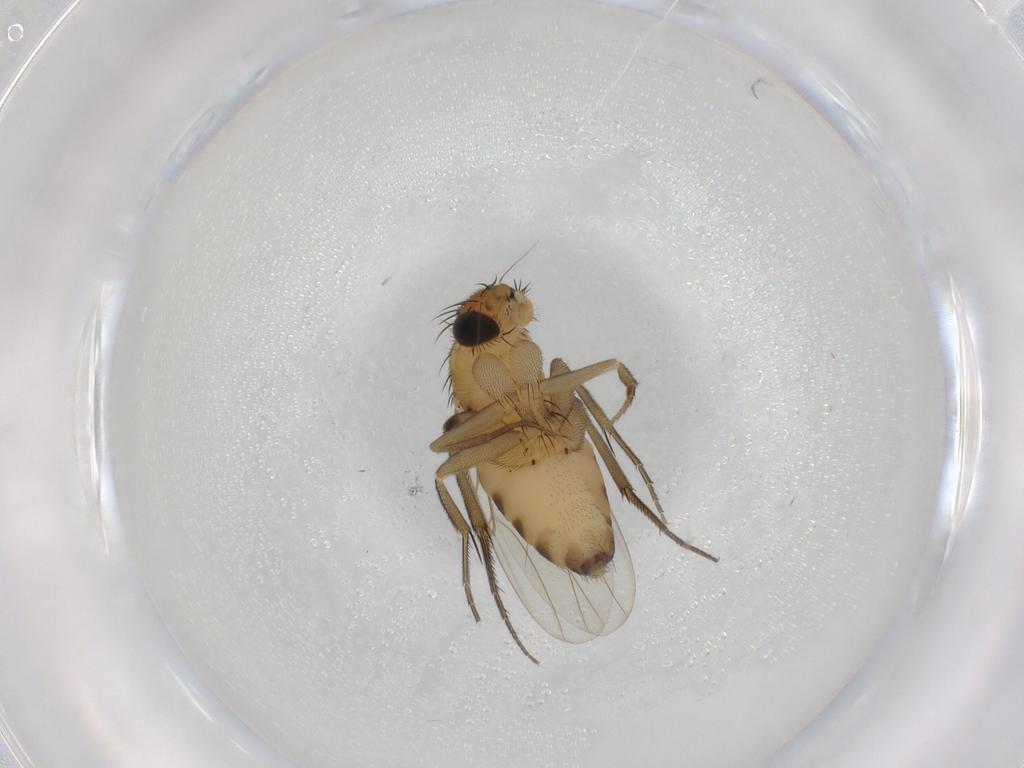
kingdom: Animalia
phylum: Arthropoda
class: Insecta
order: Diptera
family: Phoridae
